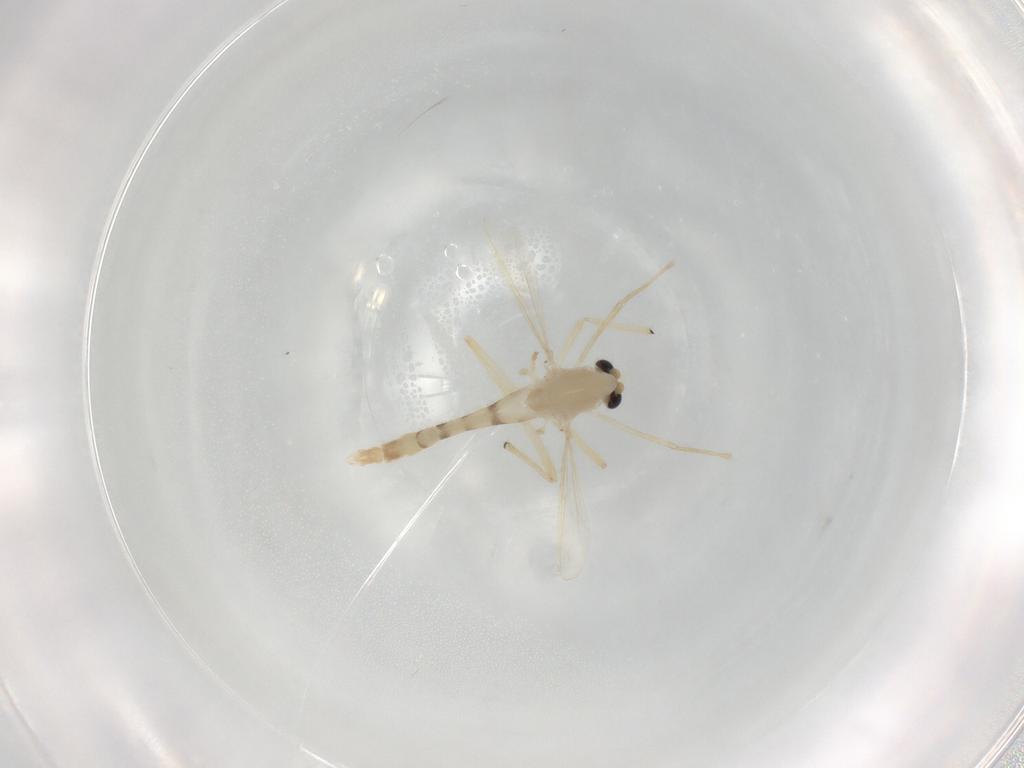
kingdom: Animalia
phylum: Arthropoda
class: Insecta
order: Diptera
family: Chironomidae
